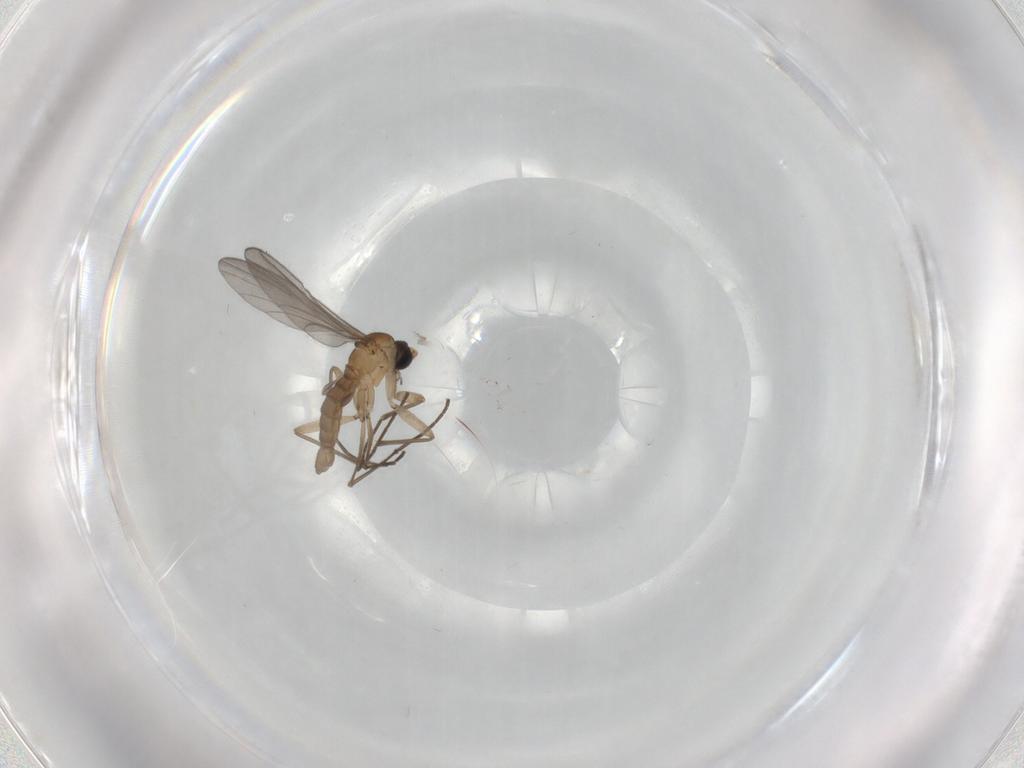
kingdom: Animalia
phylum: Arthropoda
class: Insecta
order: Diptera
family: Sciaridae
